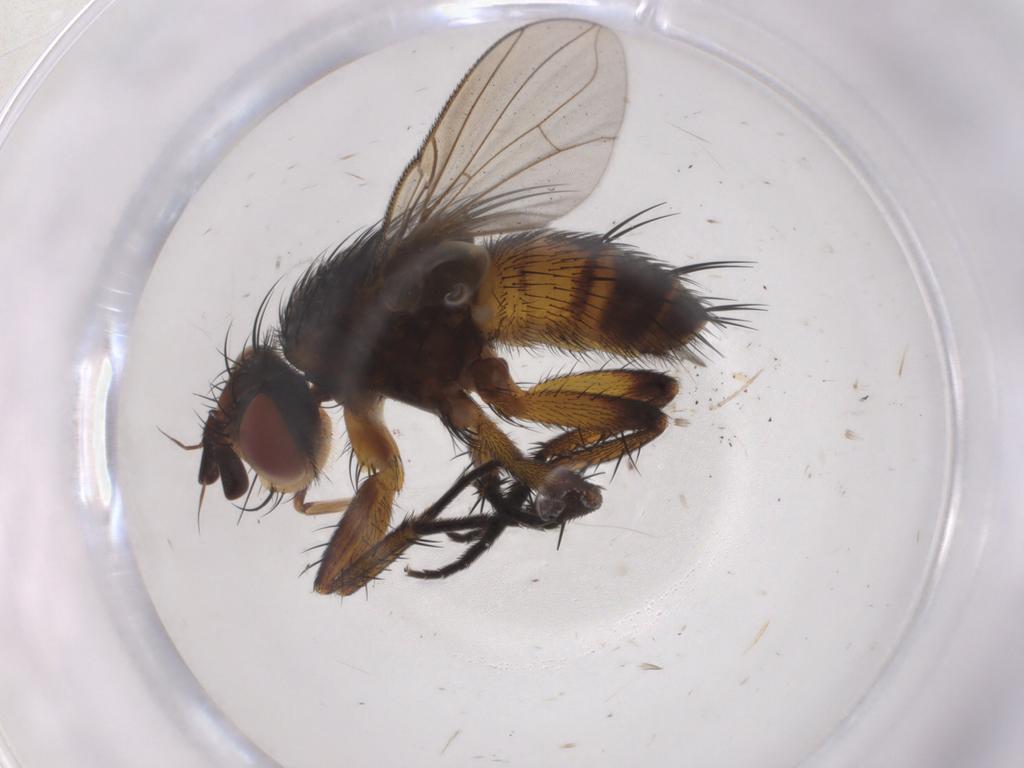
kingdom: Animalia
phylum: Arthropoda
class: Insecta
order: Diptera
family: Tachinidae
